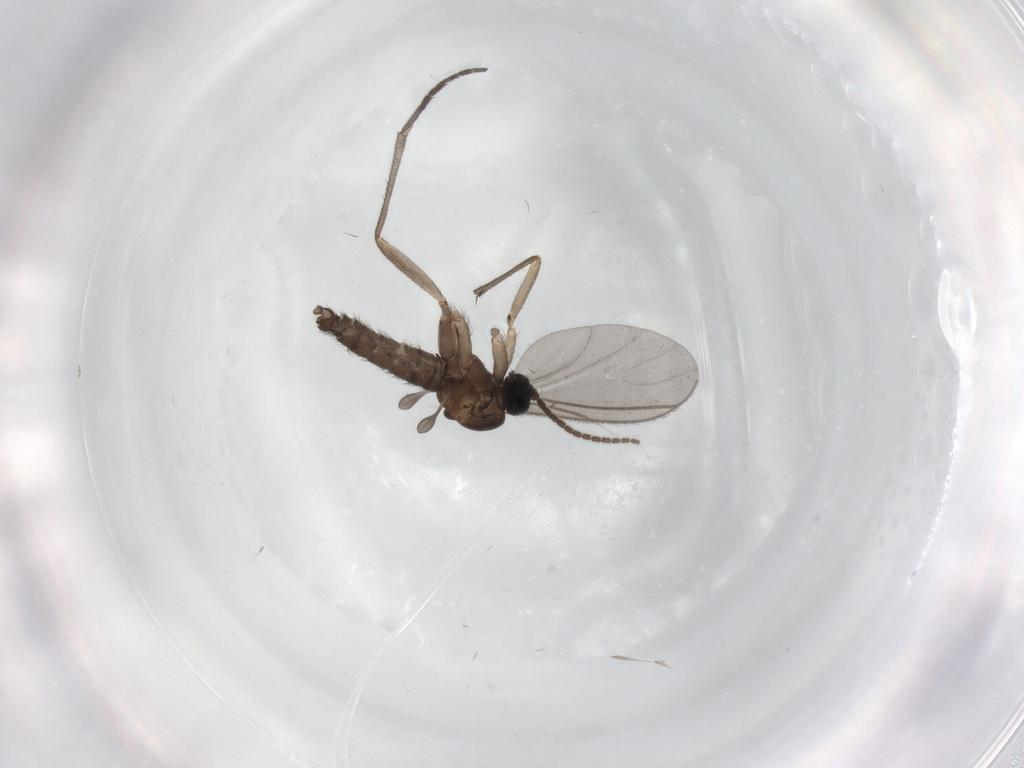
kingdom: Animalia
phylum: Arthropoda
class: Insecta
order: Diptera
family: Sciaridae
